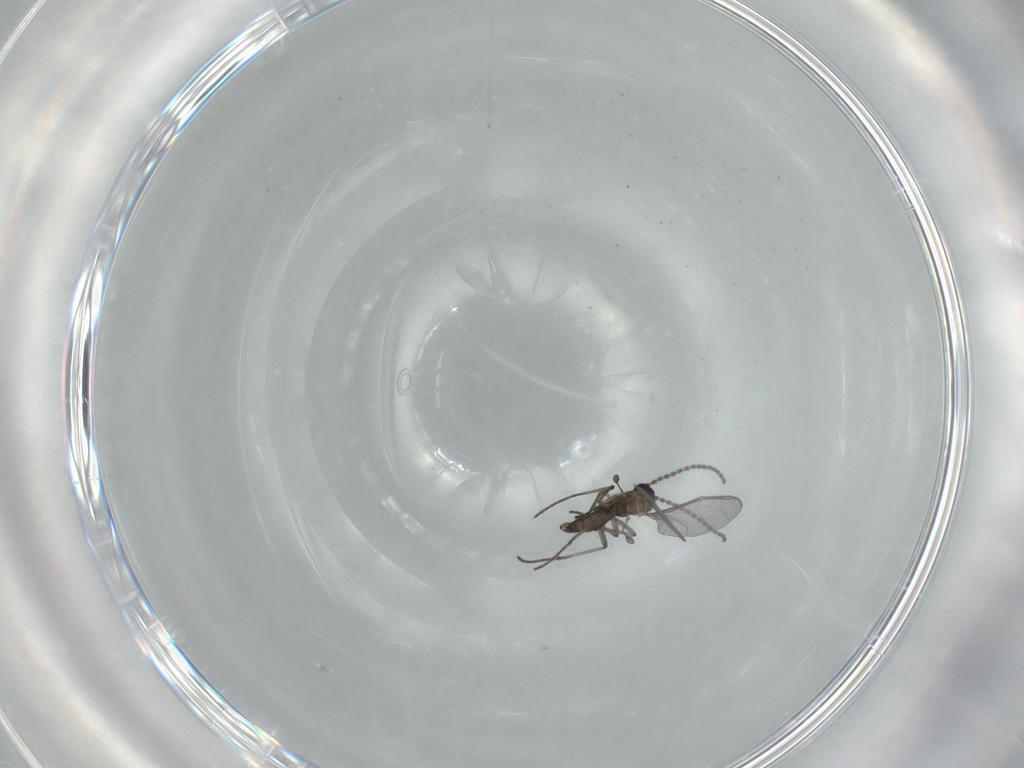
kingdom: Animalia
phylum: Arthropoda
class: Insecta
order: Diptera
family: Sciaridae
